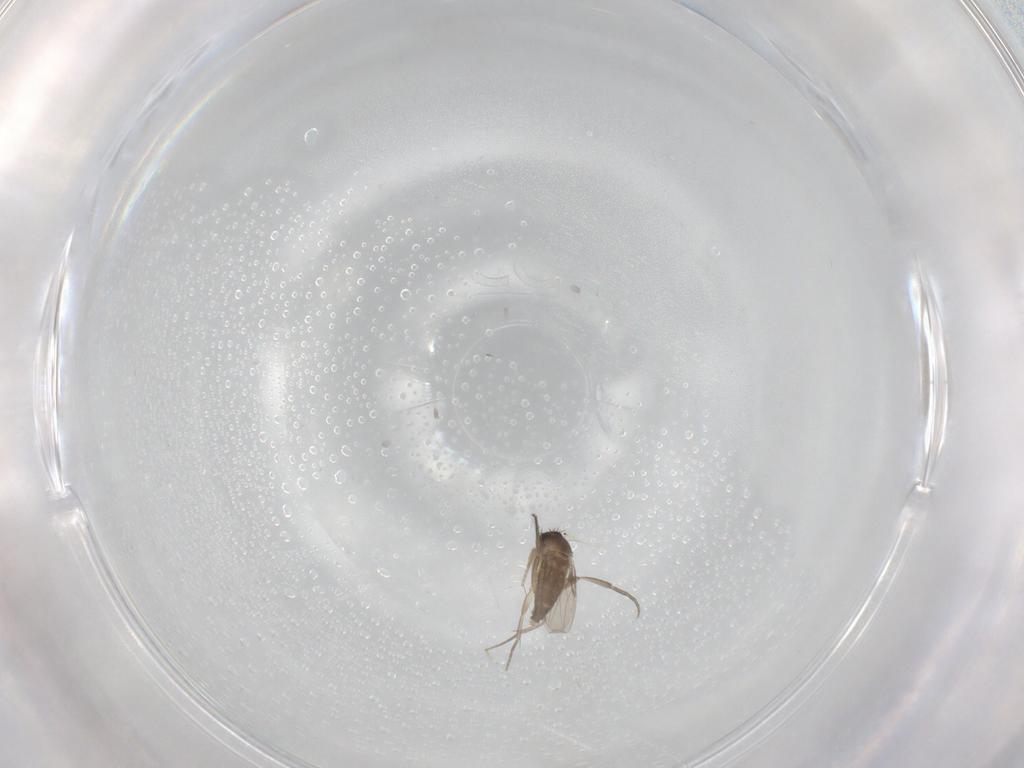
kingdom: Animalia
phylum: Arthropoda
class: Insecta
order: Diptera
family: Phoridae
